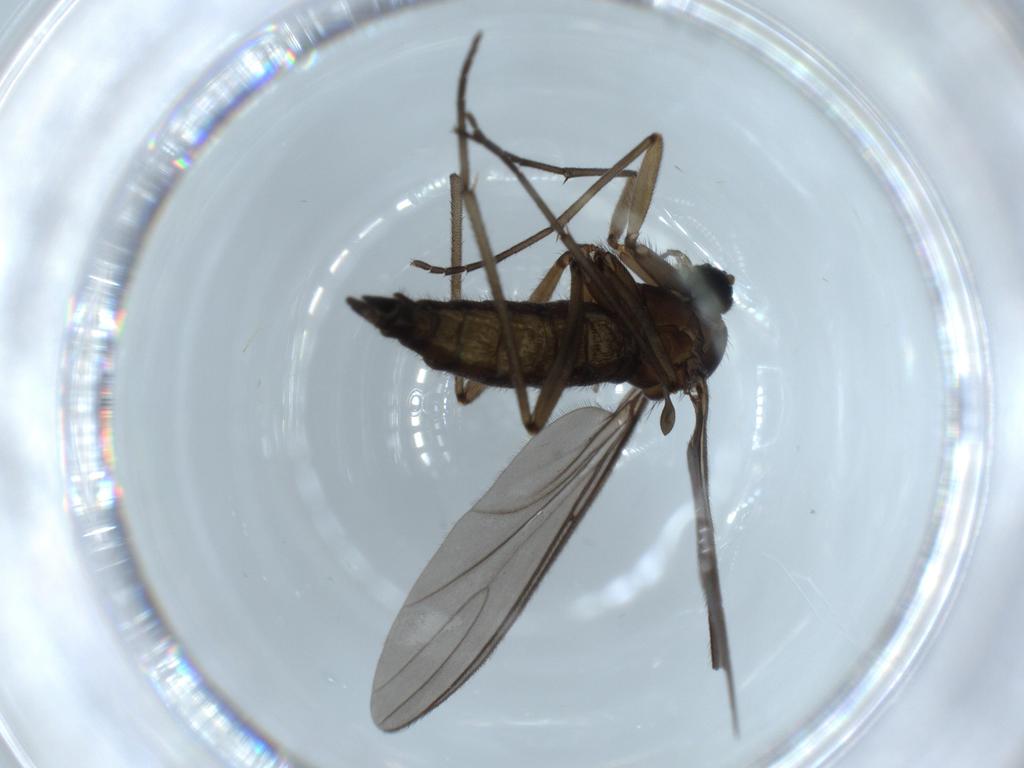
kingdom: Animalia
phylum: Arthropoda
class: Insecta
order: Diptera
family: Sciaridae
